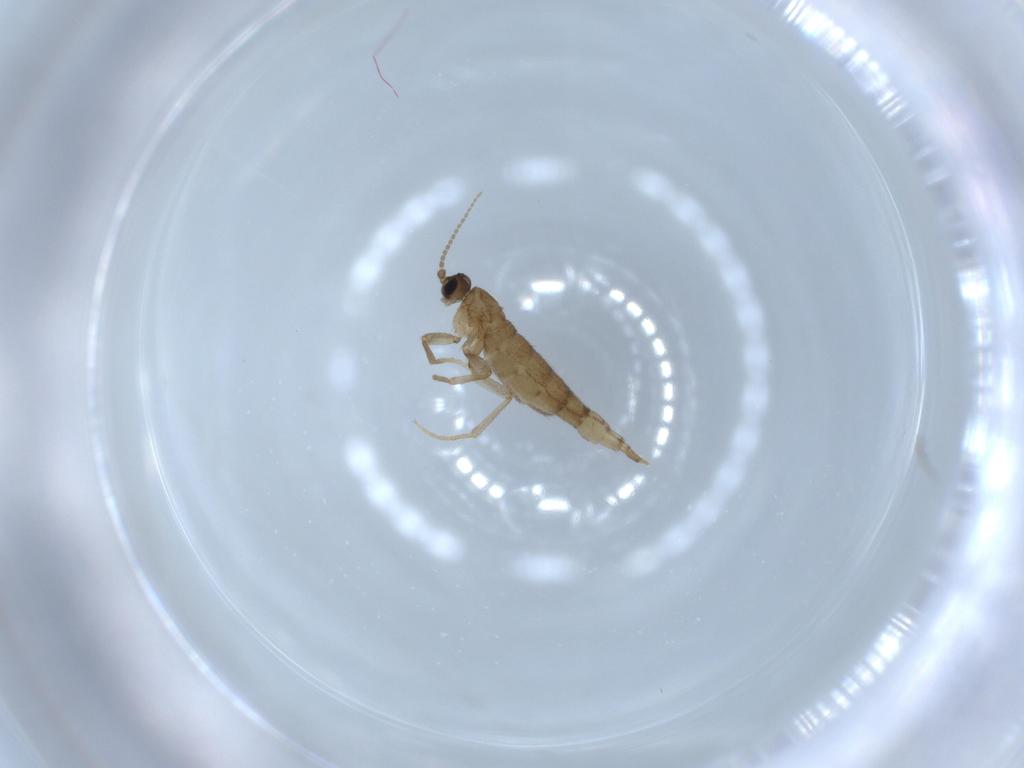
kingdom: Animalia
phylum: Arthropoda
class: Insecta
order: Diptera
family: Sciaridae
